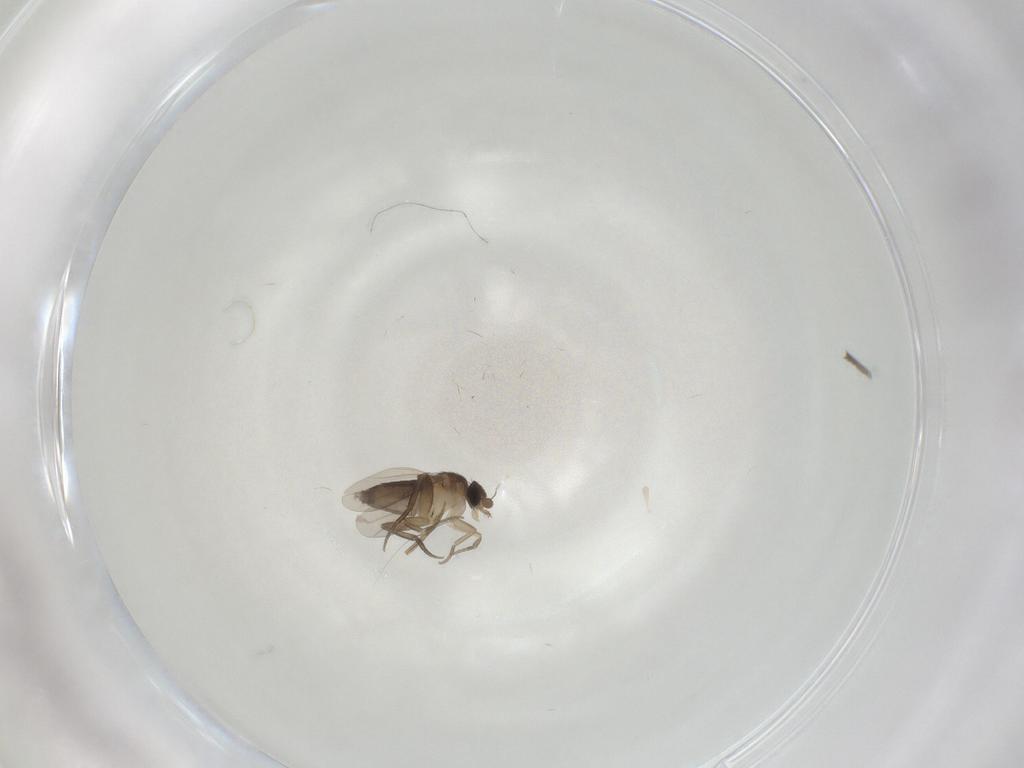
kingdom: Animalia
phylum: Arthropoda
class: Insecta
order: Diptera
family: Phoridae
